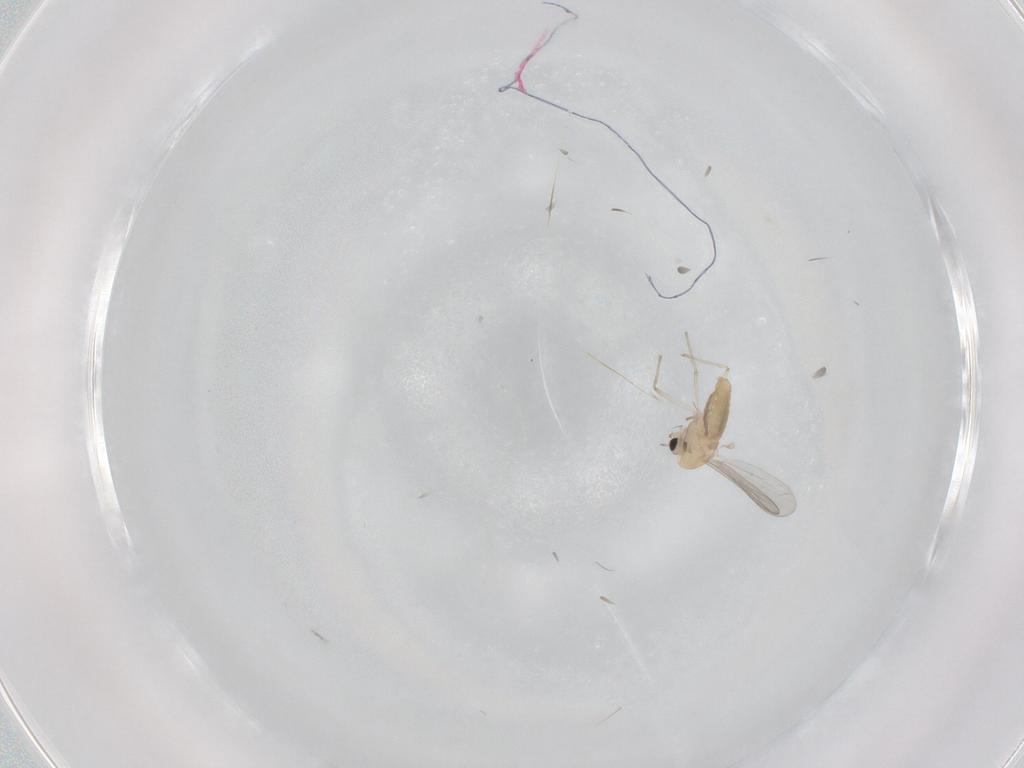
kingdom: Animalia
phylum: Arthropoda
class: Insecta
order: Diptera
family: Chironomidae
